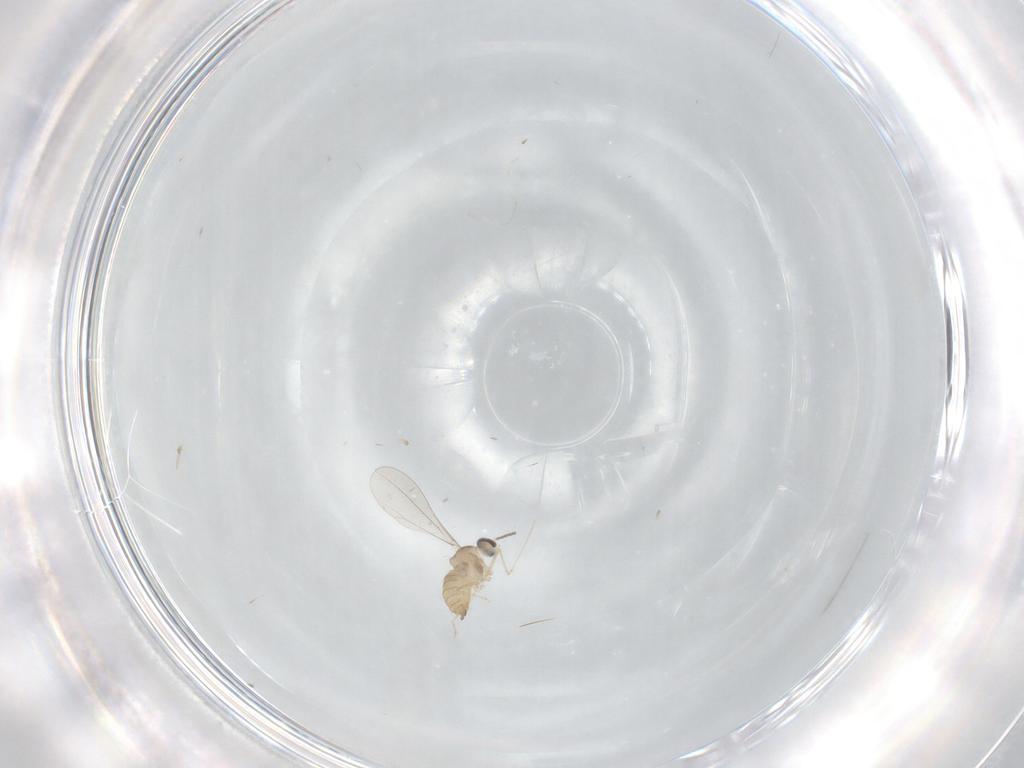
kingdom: Animalia
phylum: Arthropoda
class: Insecta
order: Diptera
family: Cecidomyiidae
